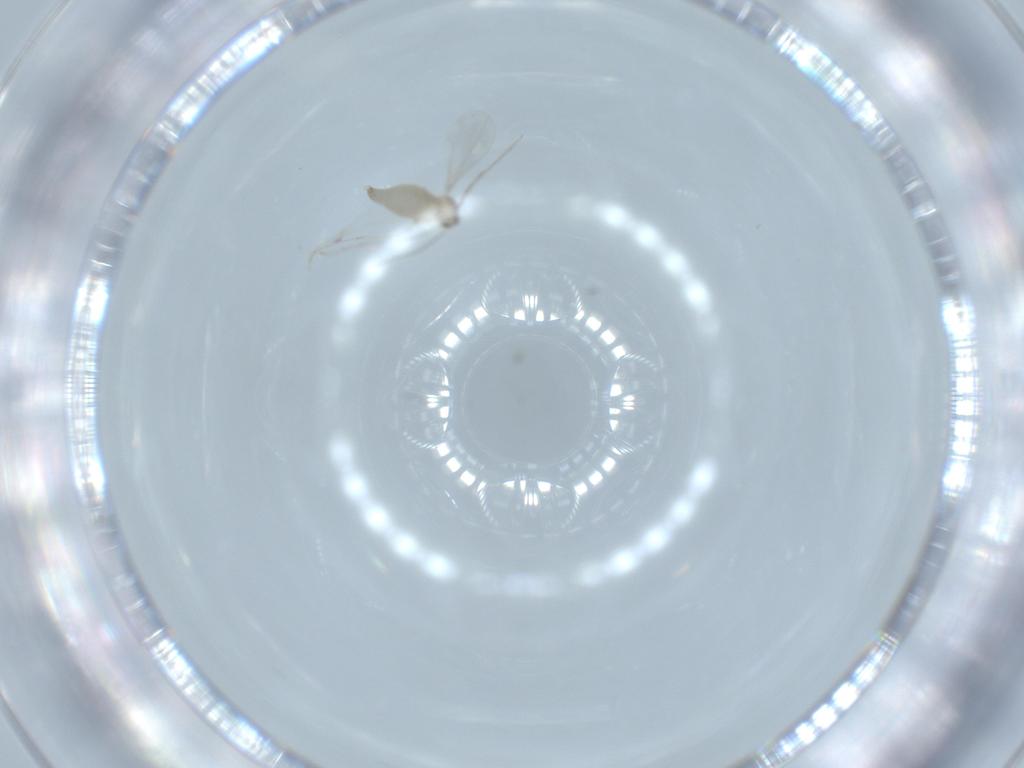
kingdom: Animalia
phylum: Arthropoda
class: Insecta
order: Diptera
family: Cecidomyiidae
